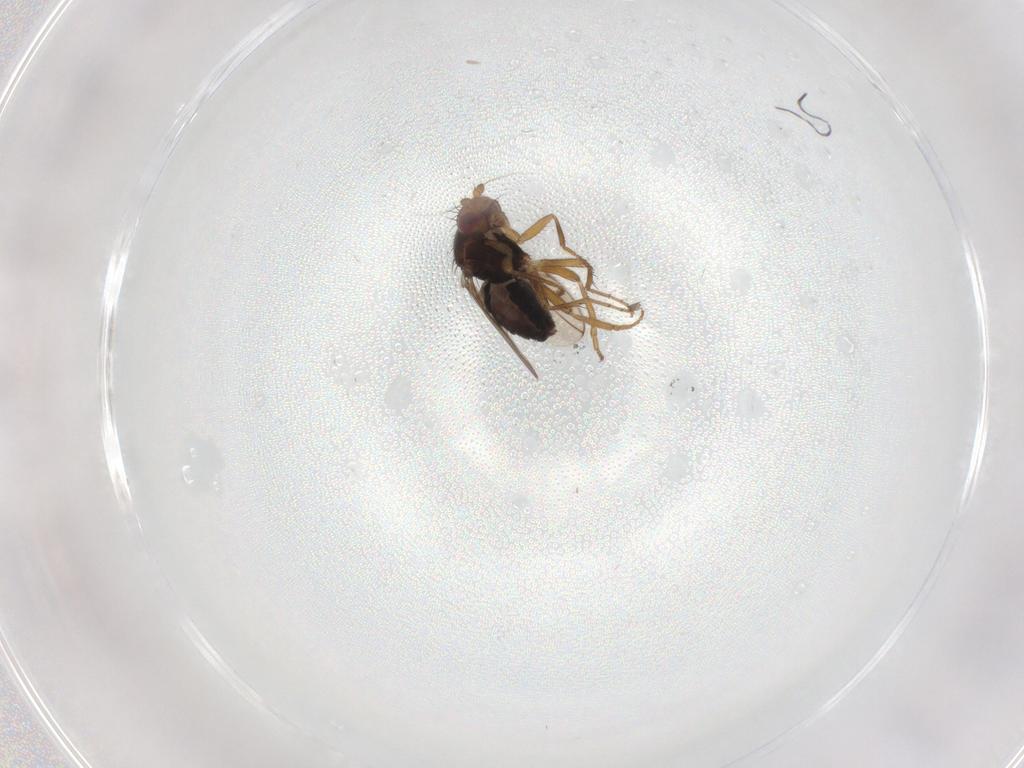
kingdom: Animalia
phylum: Arthropoda
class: Insecta
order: Diptera
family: Sphaeroceridae
